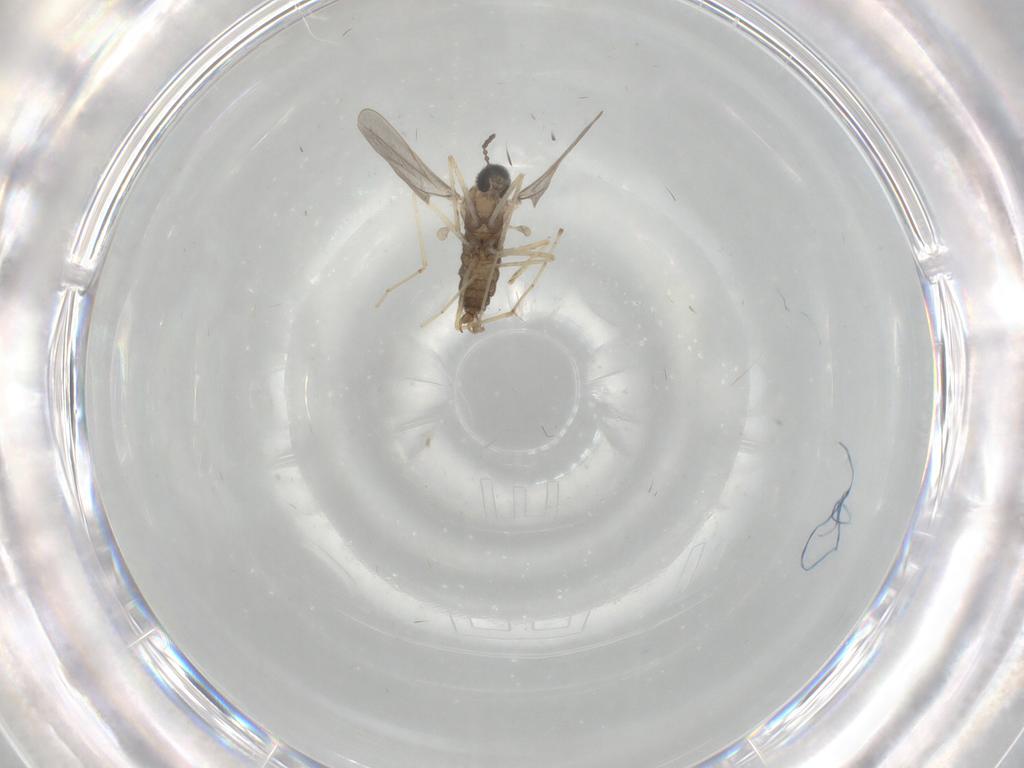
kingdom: Animalia
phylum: Arthropoda
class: Insecta
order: Diptera
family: Cecidomyiidae
